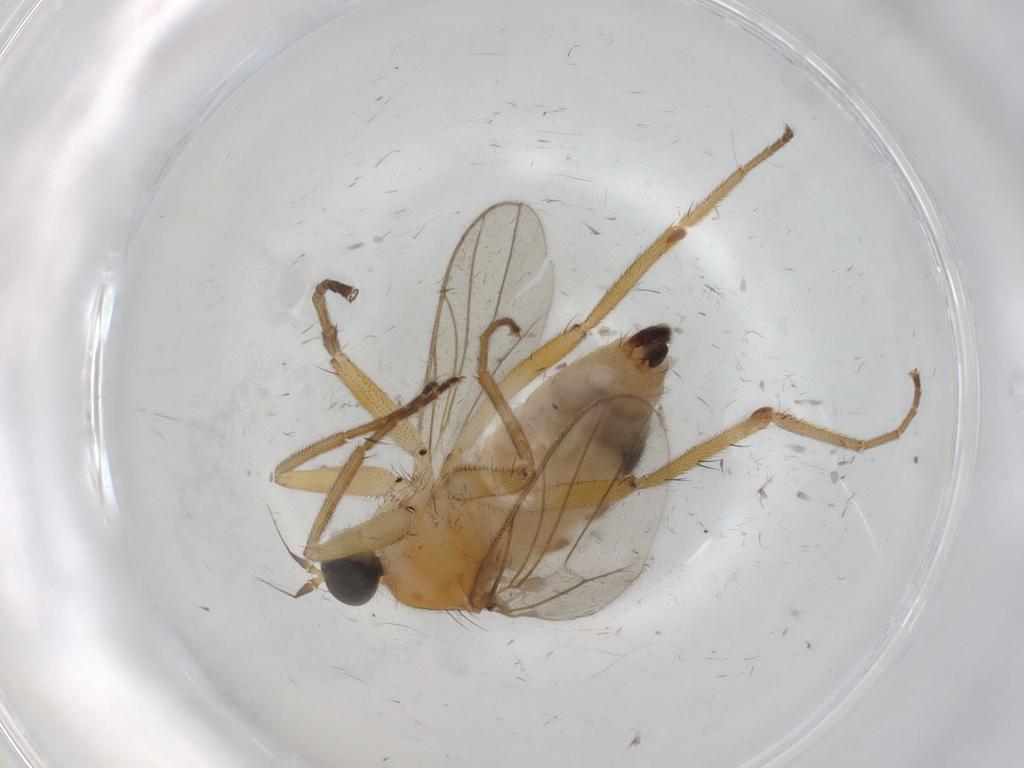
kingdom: Animalia
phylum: Arthropoda
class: Insecta
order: Diptera
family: Hybotidae
